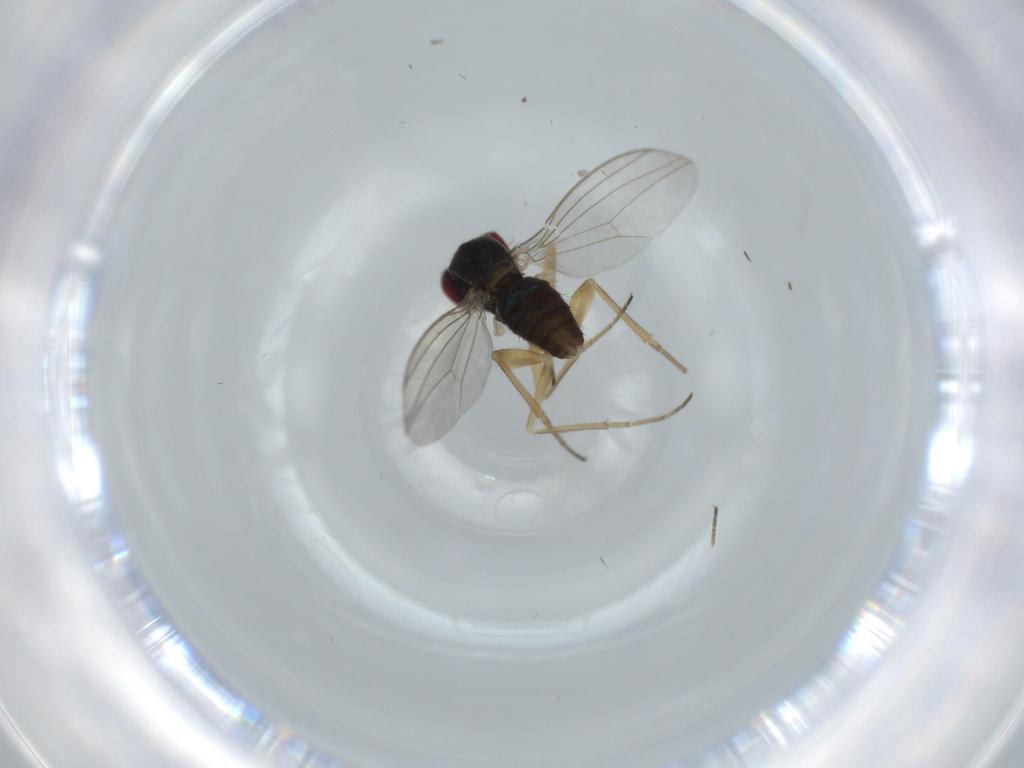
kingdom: Animalia
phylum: Arthropoda
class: Insecta
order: Diptera
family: Dolichopodidae
